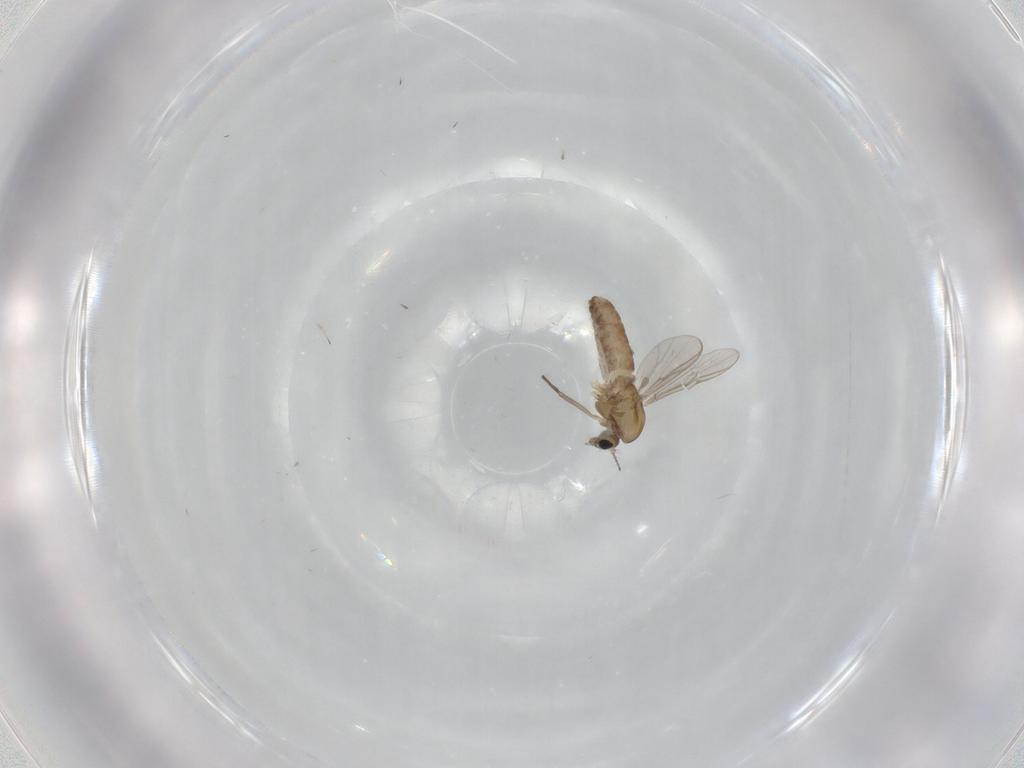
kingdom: Animalia
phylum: Arthropoda
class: Insecta
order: Diptera
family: Chironomidae
